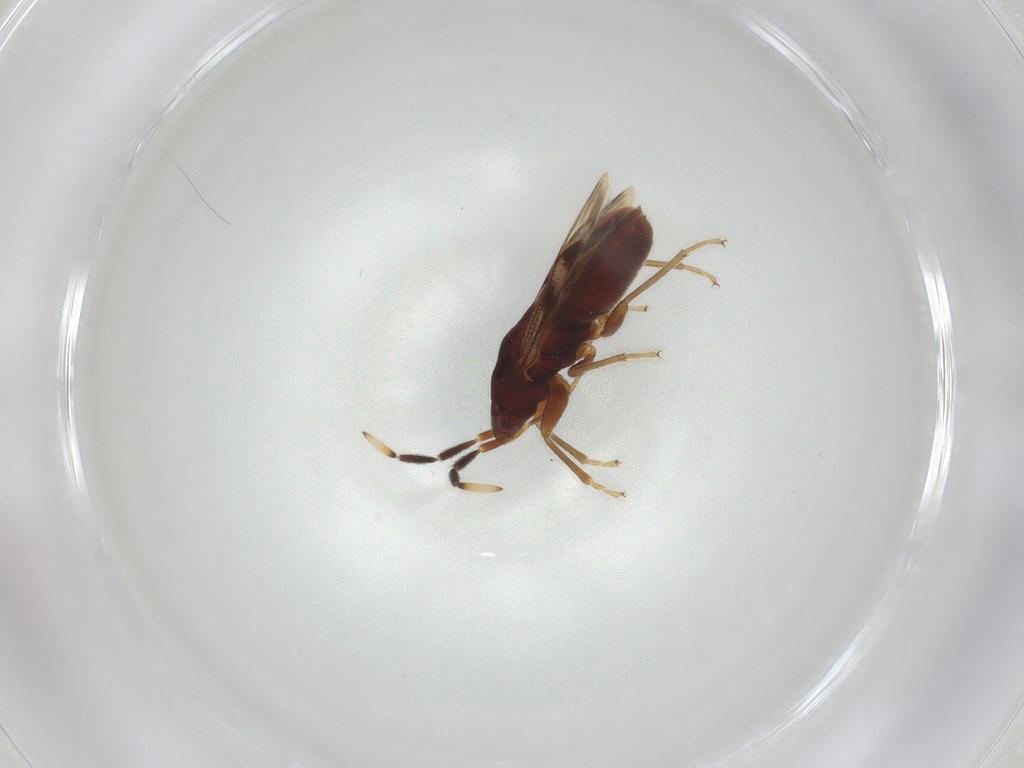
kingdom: Animalia
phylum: Arthropoda
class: Insecta
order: Hemiptera
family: Rhyparochromidae
